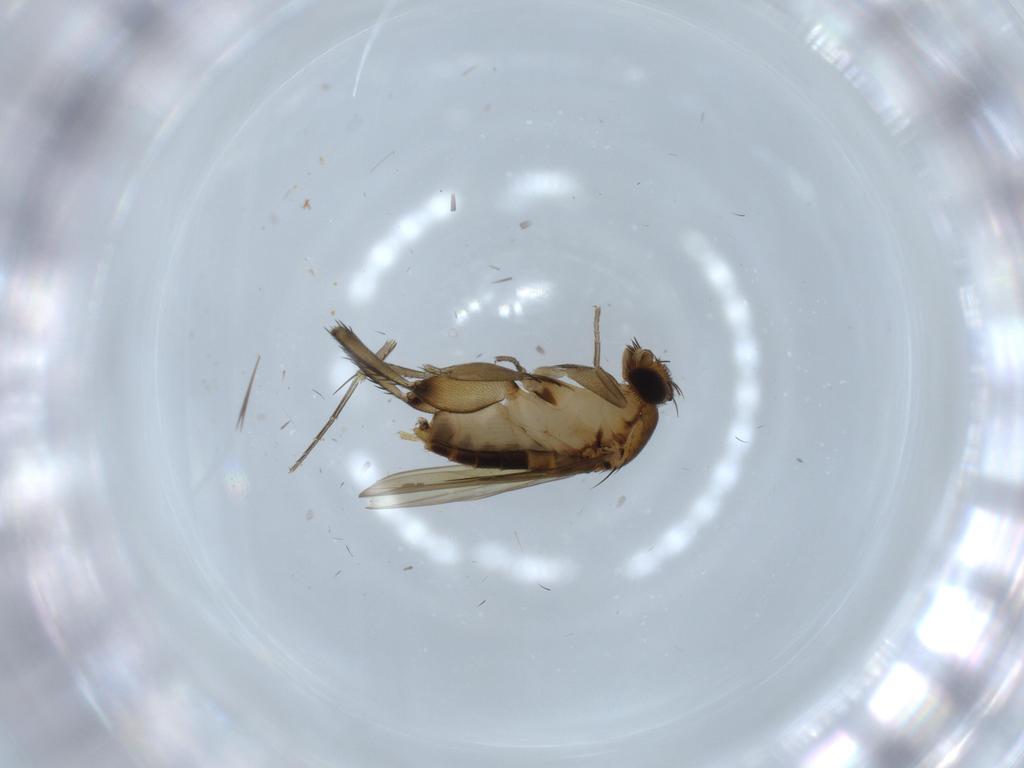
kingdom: Animalia
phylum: Arthropoda
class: Insecta
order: Diptera
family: Phoridae
